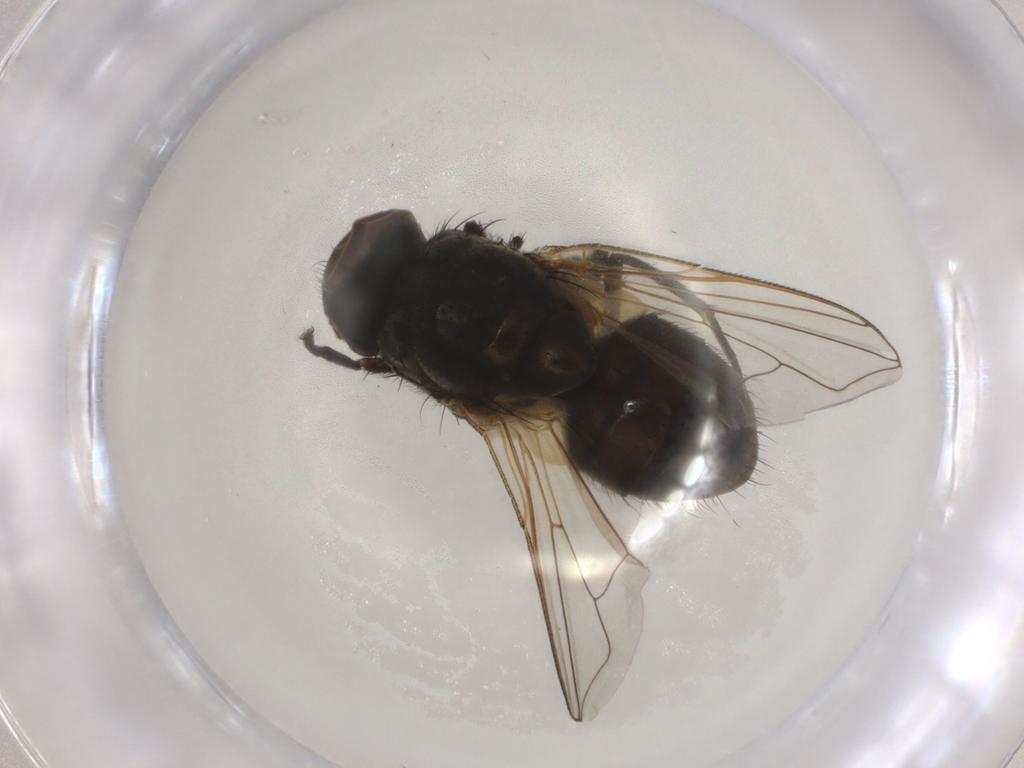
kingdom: Animalia
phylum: Arthropoda
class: Insecta
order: Diptera
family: Muscidae
